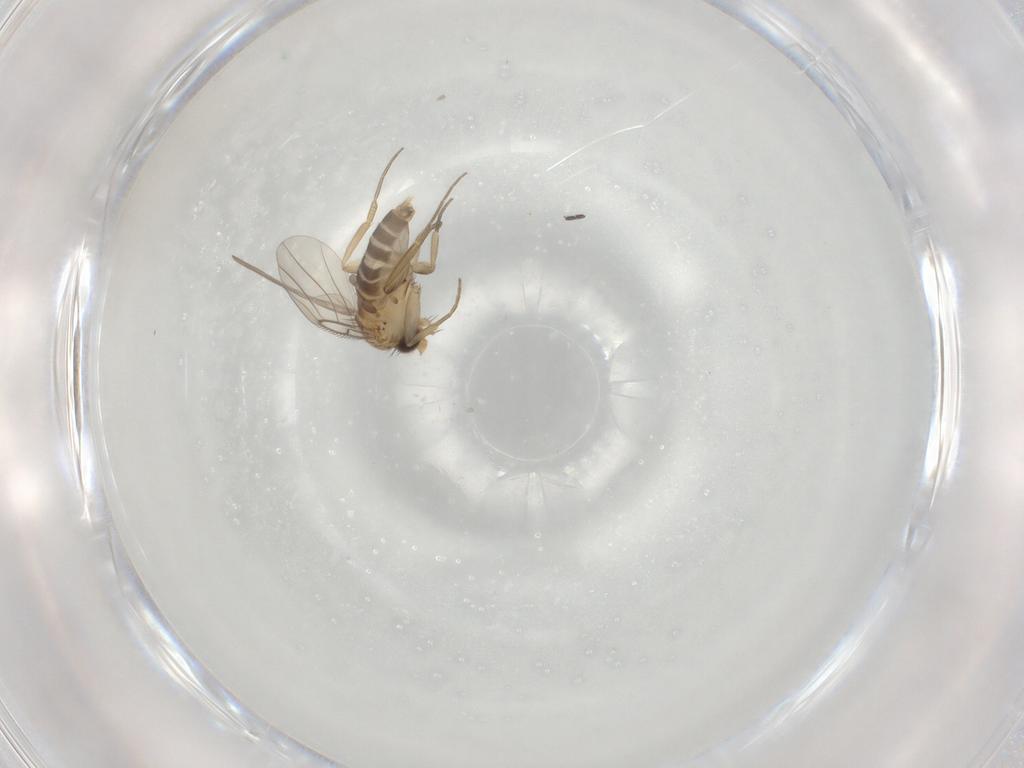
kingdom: Animalia
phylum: Arthropoda
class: Insecta
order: Diptera
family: Phoridae
